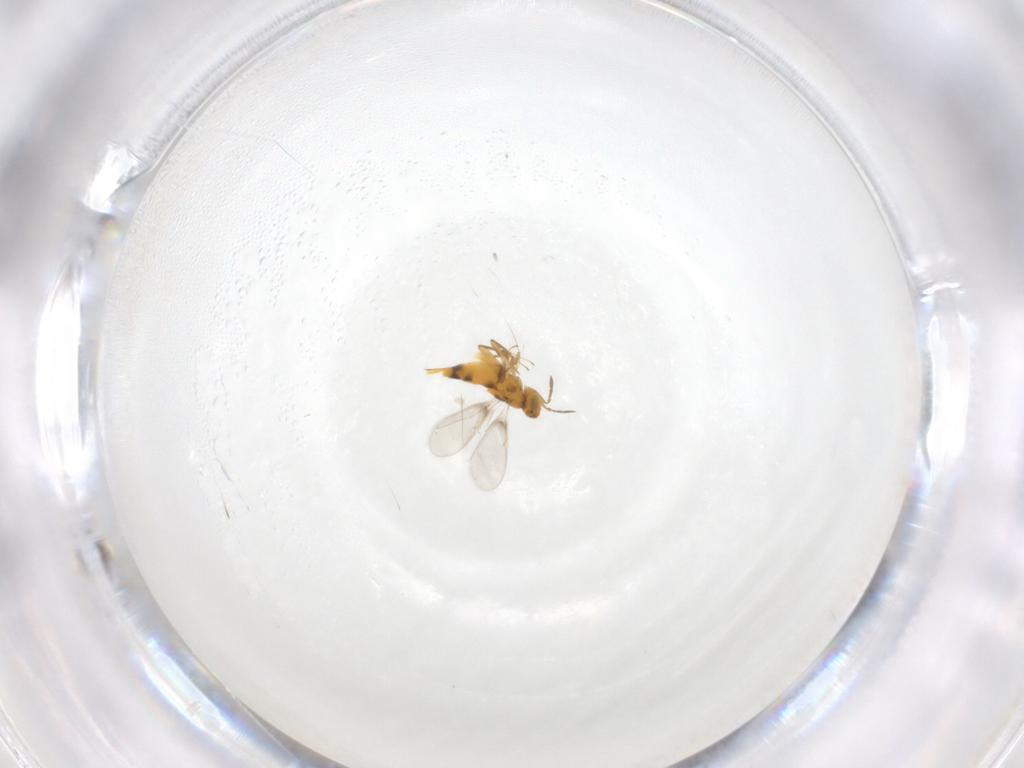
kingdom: Animalia
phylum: Arthropoda
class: Insecta
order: Hymenoptera
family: Aphelinidae
